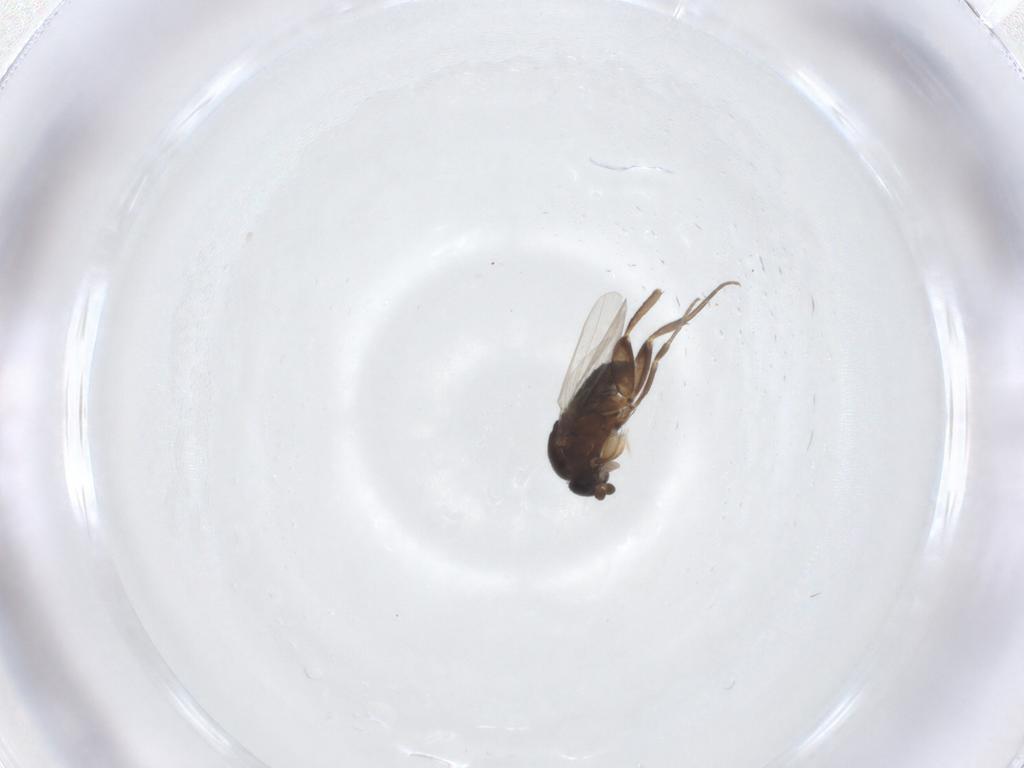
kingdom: Animalia
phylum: Arthropoda
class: Insecta
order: Diptera
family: Phoridae
